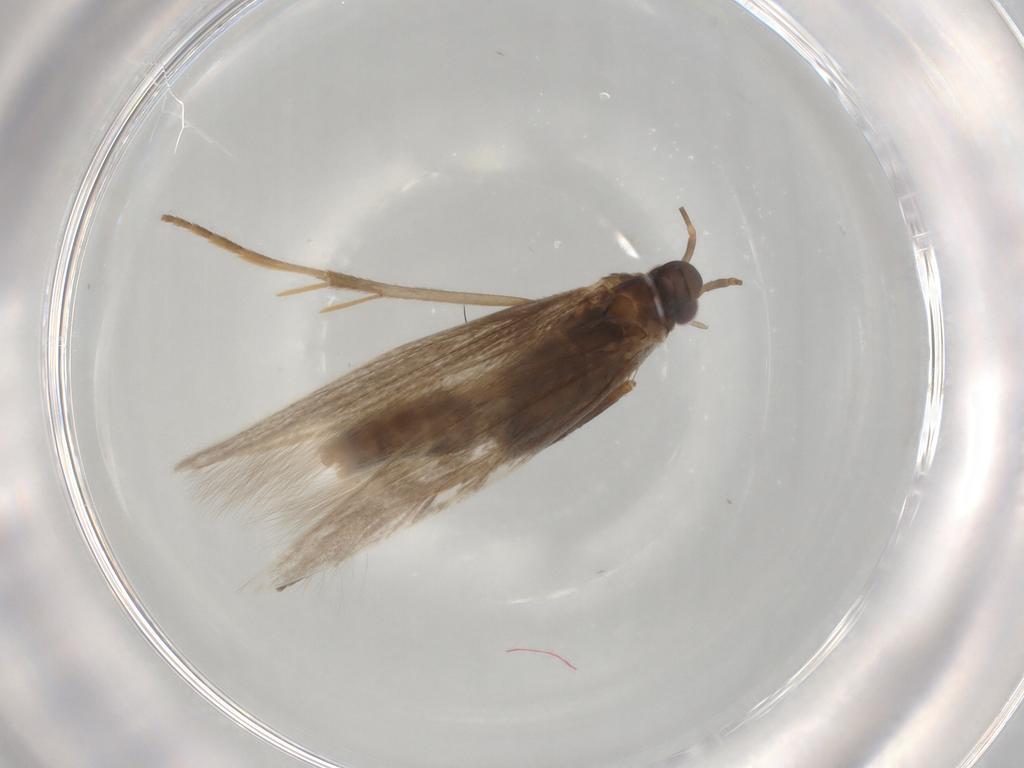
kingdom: Animalia
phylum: Arthropoda
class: Insecta
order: Lepidoptera
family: Coleophoridae
